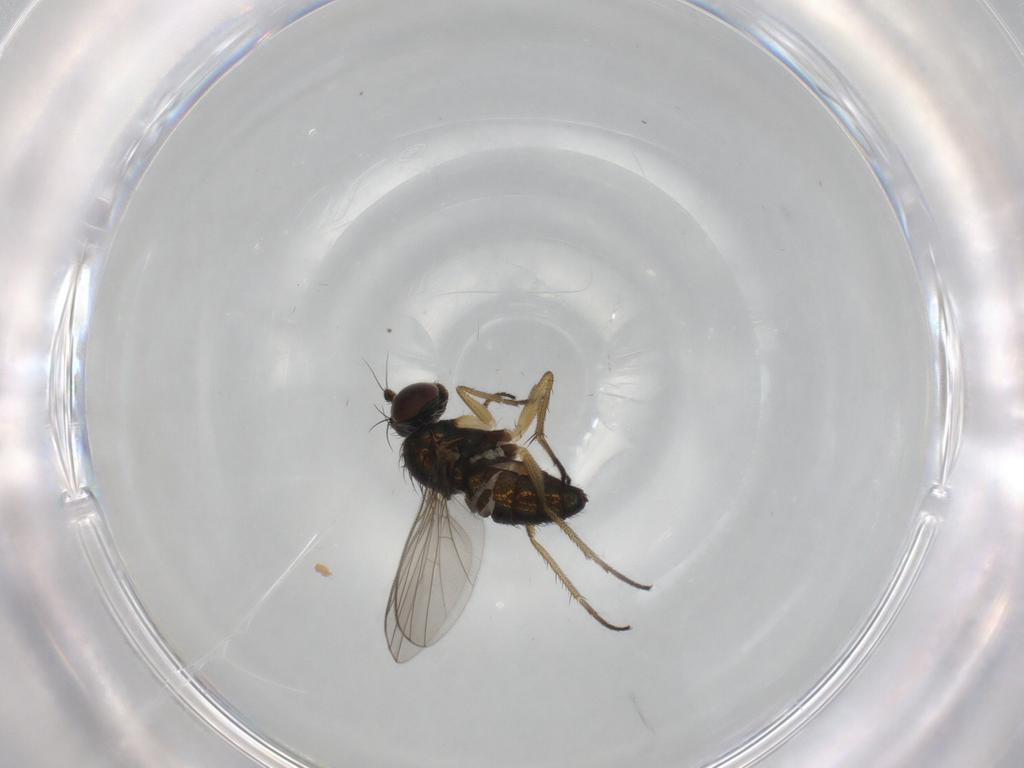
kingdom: Animalia
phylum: Arthropoda
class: Insecta
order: Diptera
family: Dolichopodidae
